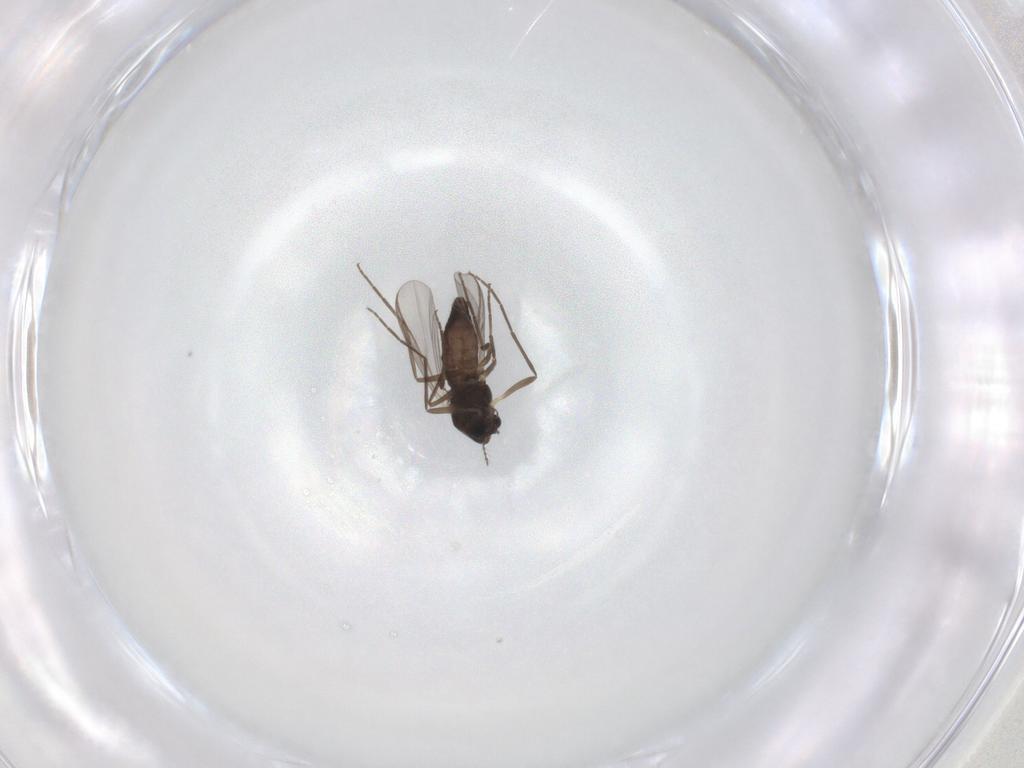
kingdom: Animalia
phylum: Arthropoda
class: Insecta
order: Diptera
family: Chironomidae
